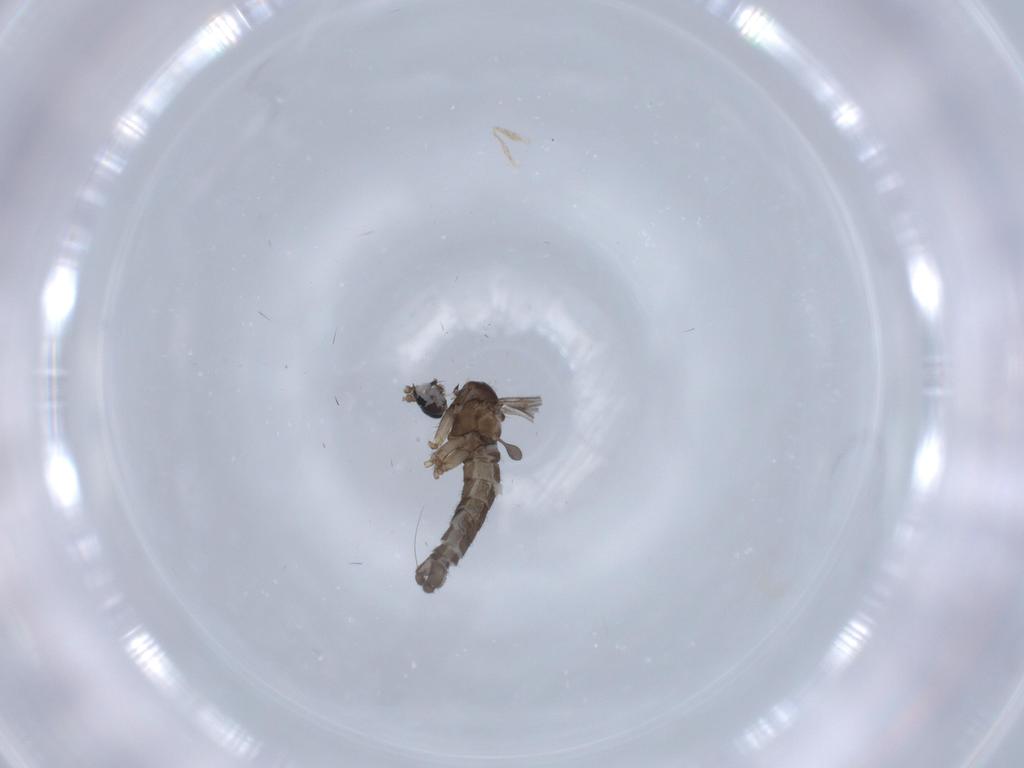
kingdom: Animalia
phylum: Arthropoda
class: Insecta
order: Diptera
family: Sciaridae
